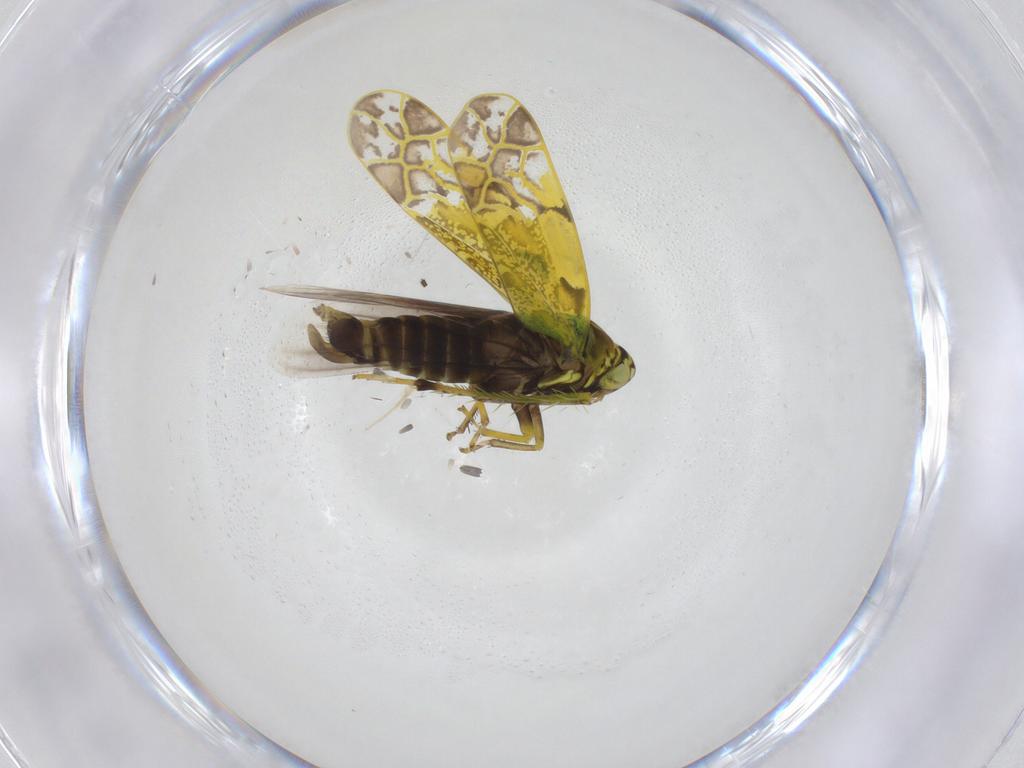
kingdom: Animalia
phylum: Arthropoda
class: Insecta
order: Hemiptera
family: Cicadellidae
